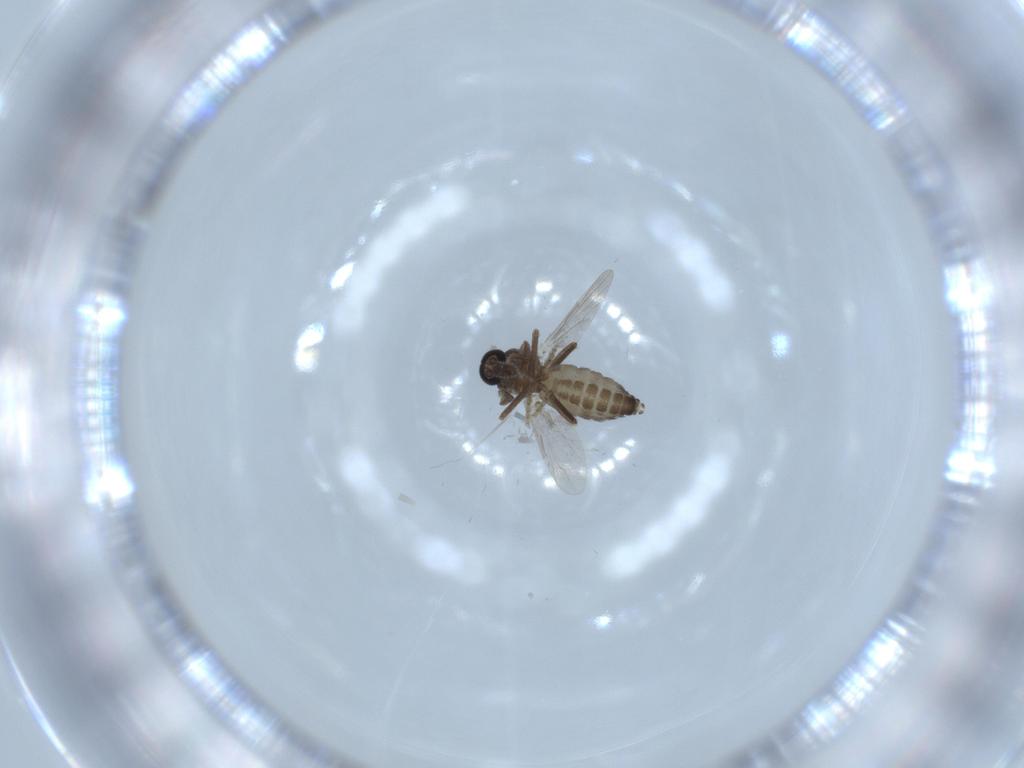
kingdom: Animalia
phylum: Arthropoda
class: Insecta
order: Diptera
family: Ceratopogonidae
